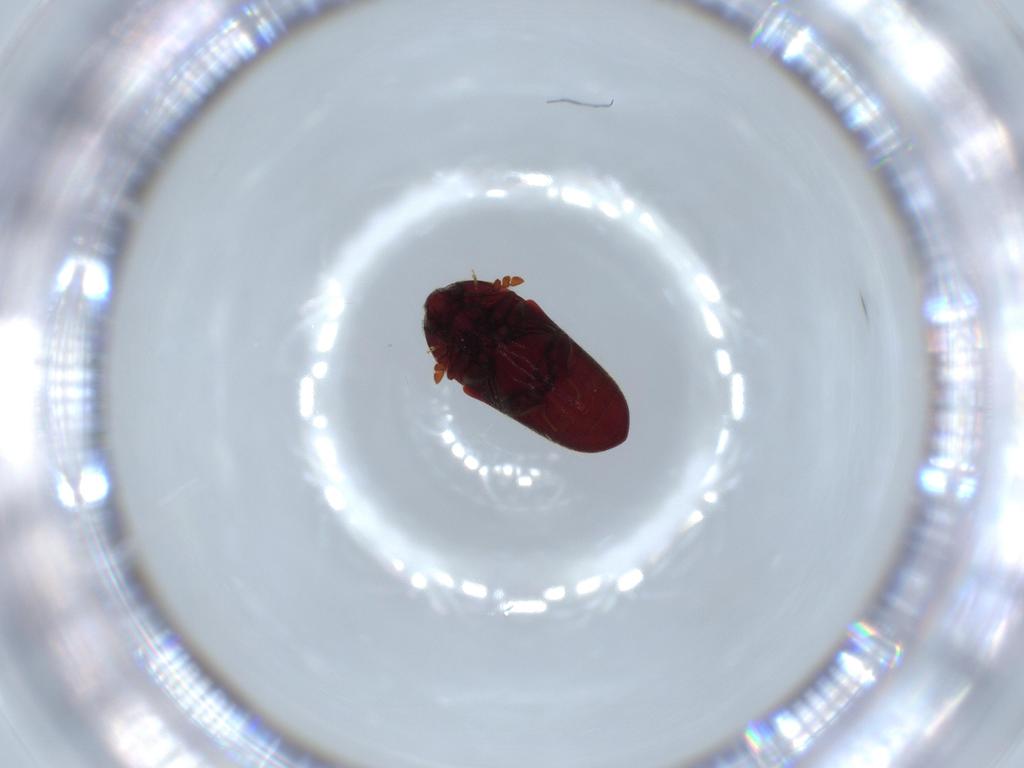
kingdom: Animalia
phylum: Arthropoda
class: Insecta
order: Coleoptera
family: Throscidae
